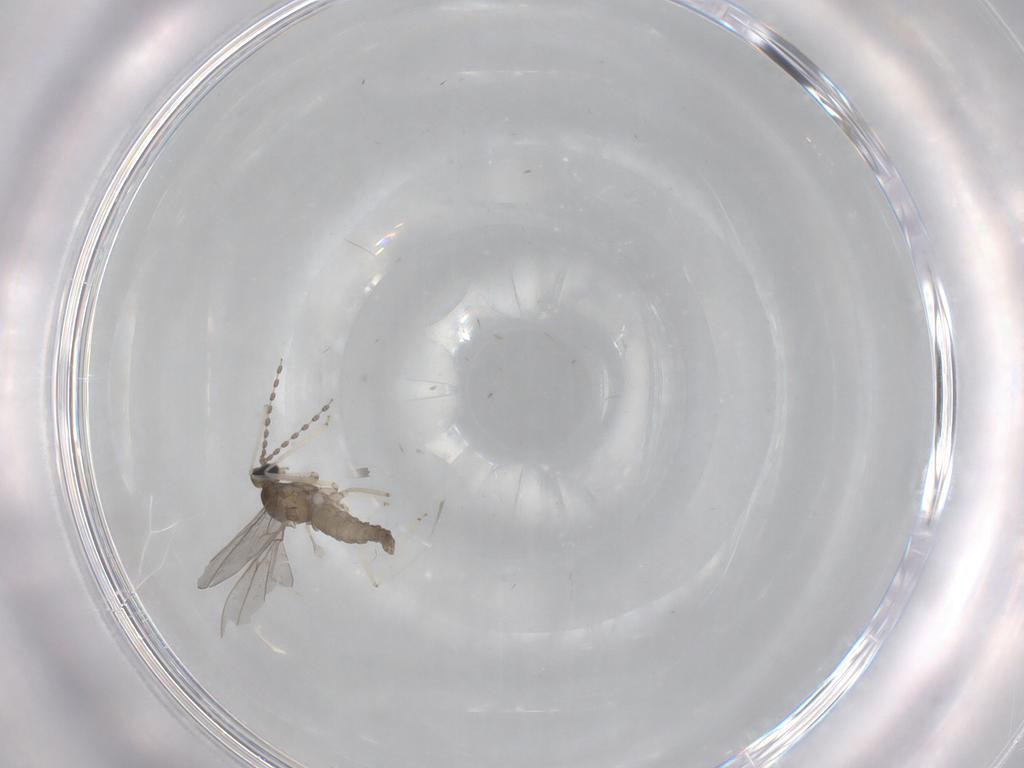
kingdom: Animalia
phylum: Arthropoda
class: Insecta
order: Diptera
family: Cecidomyiidae
